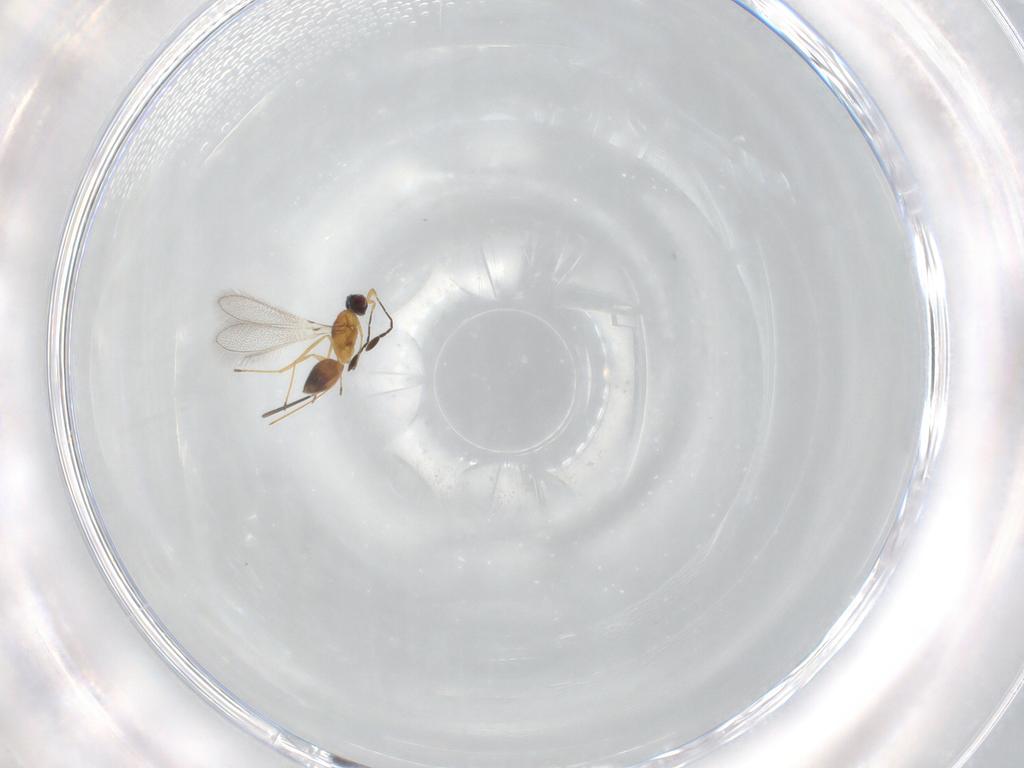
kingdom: Animalia
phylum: Arthropoda
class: Insecta
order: Hymenoptera
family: Mymaridae
